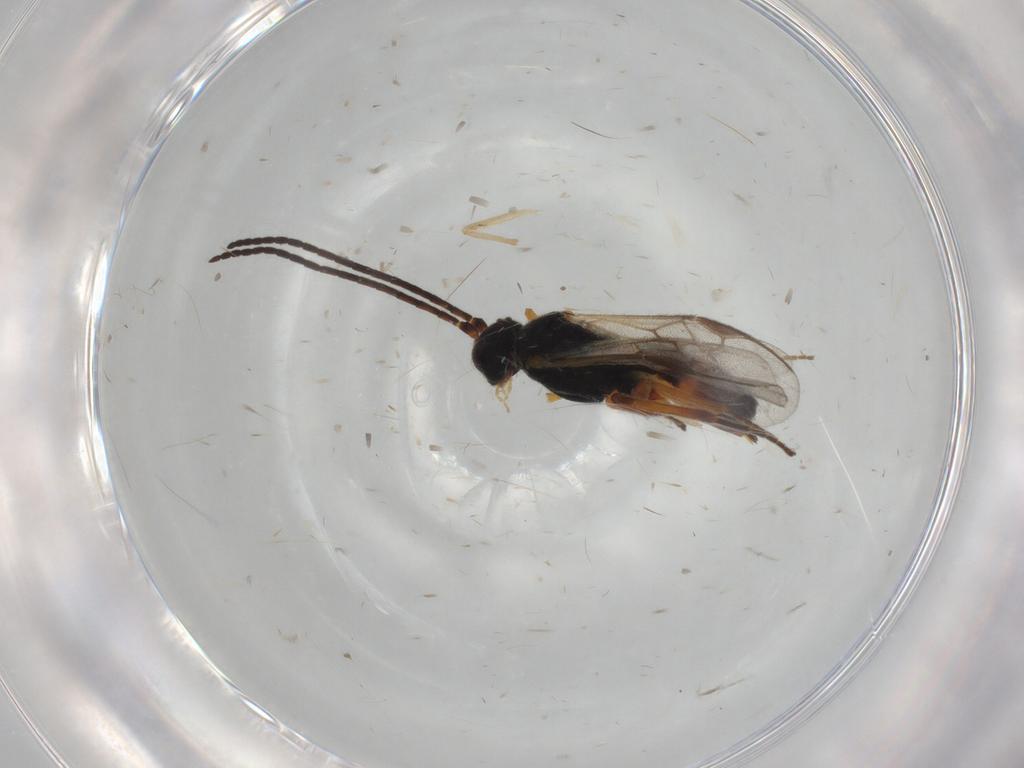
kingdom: Animalia
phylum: Arthropoda
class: Insecta
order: Hymenoptera
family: Braconidae
